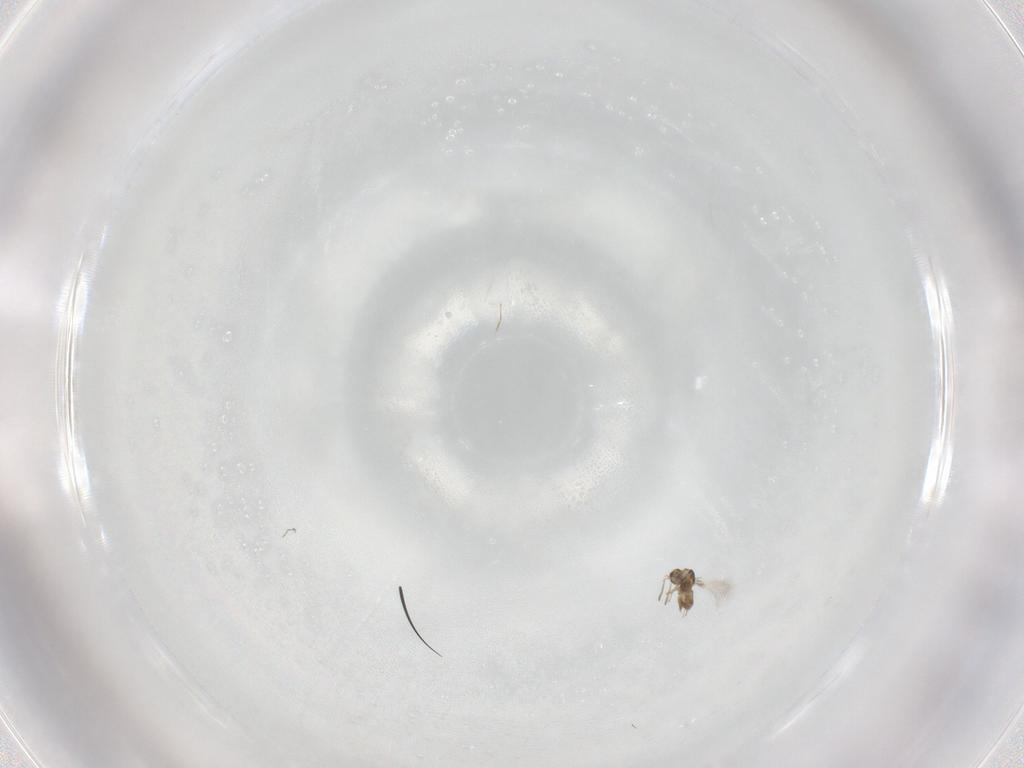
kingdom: Animalia
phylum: Arthropoda
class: Insecta
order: Hymenoptera
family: Mymaridae
